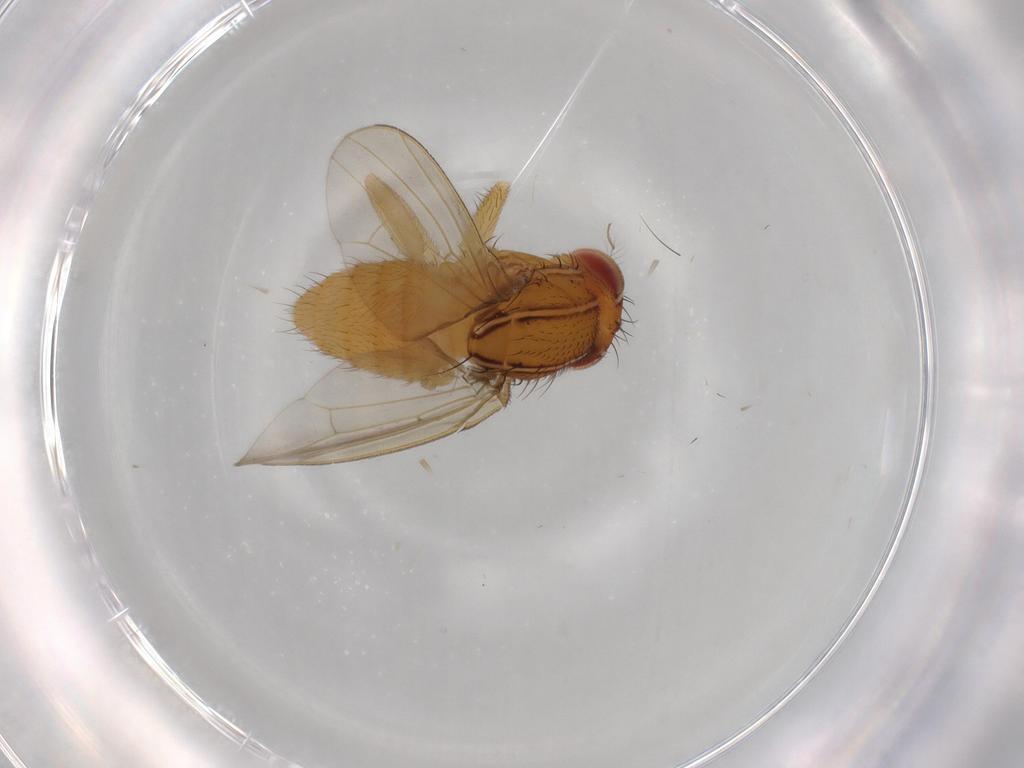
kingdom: Animalia
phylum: Arthropoda
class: Insecta
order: Diptera
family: Drosophilidae
